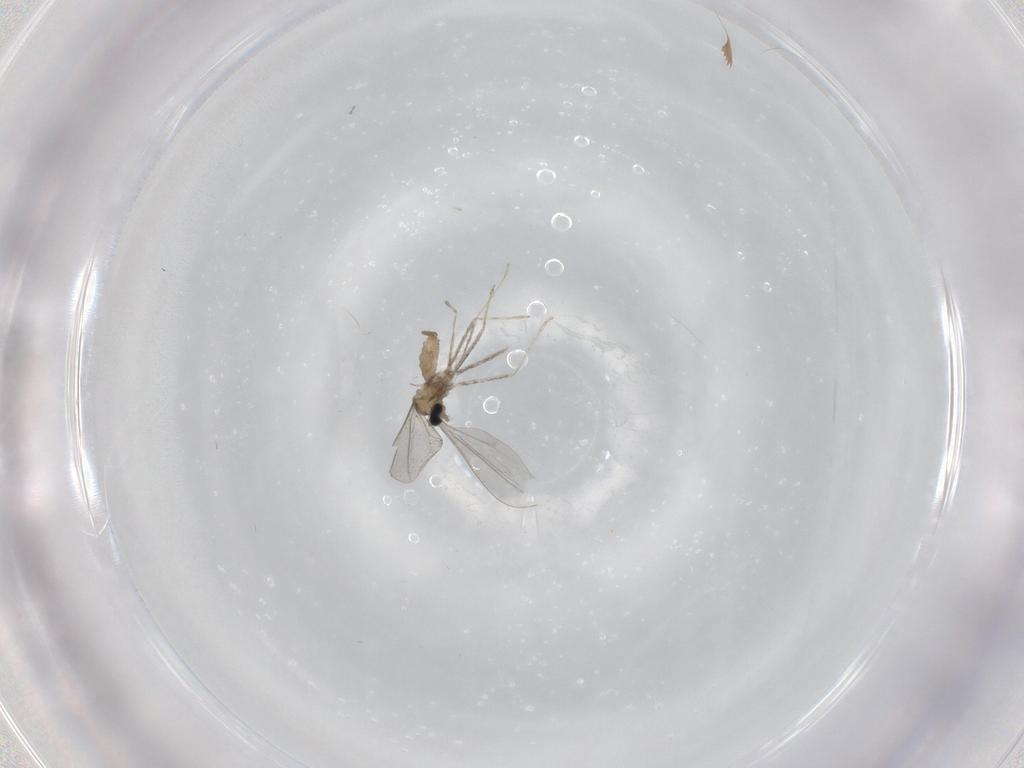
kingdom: Animalia
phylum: Arthropoda
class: Insecta
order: Diptera
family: Cecidomyiidae
